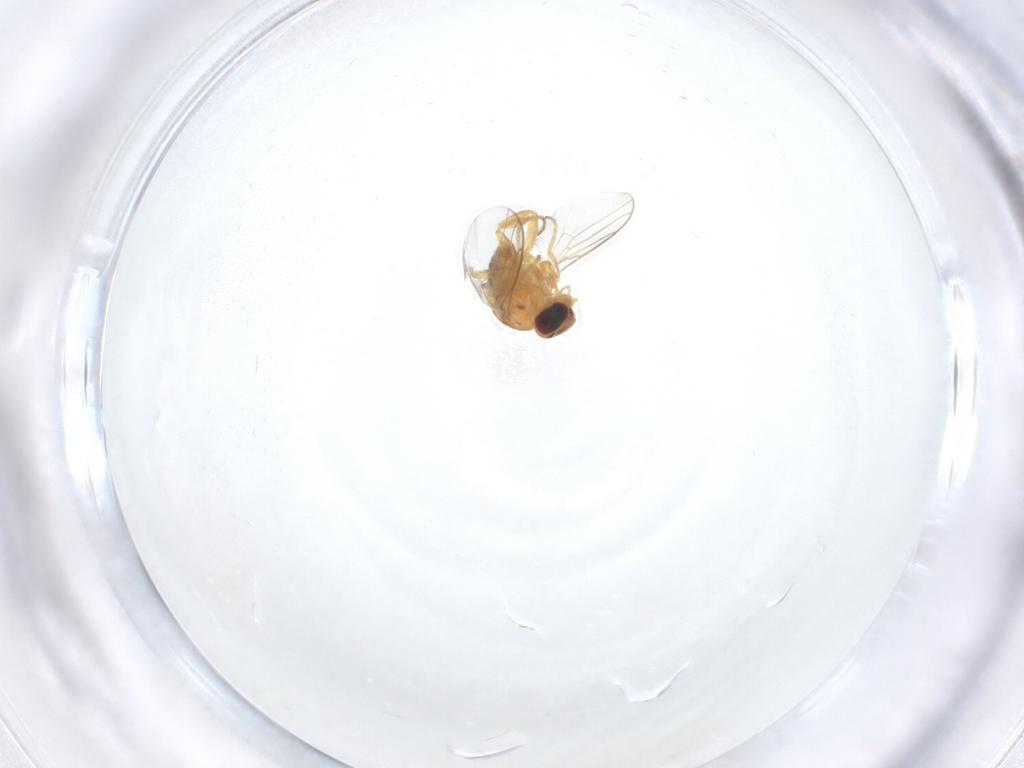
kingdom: Animalia
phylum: Arthropoda
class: Insecta
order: Diptera
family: Chloropidae
